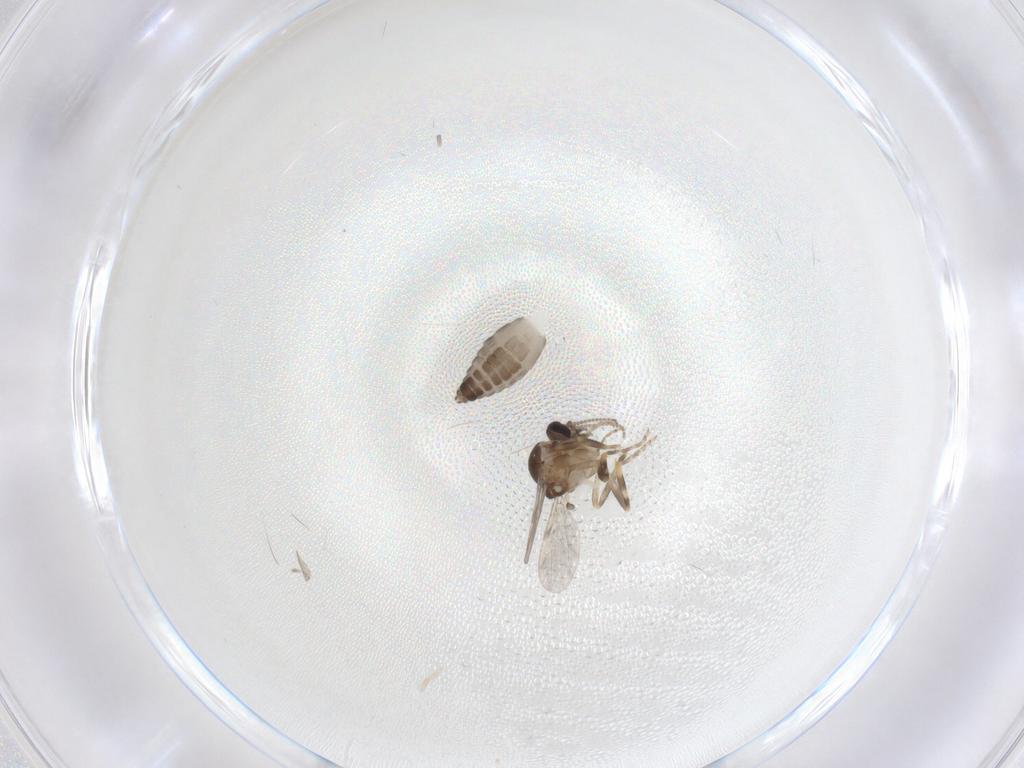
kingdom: Animalia
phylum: Arthropoda
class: Insecta
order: Diptera
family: Ceratopogonidae
